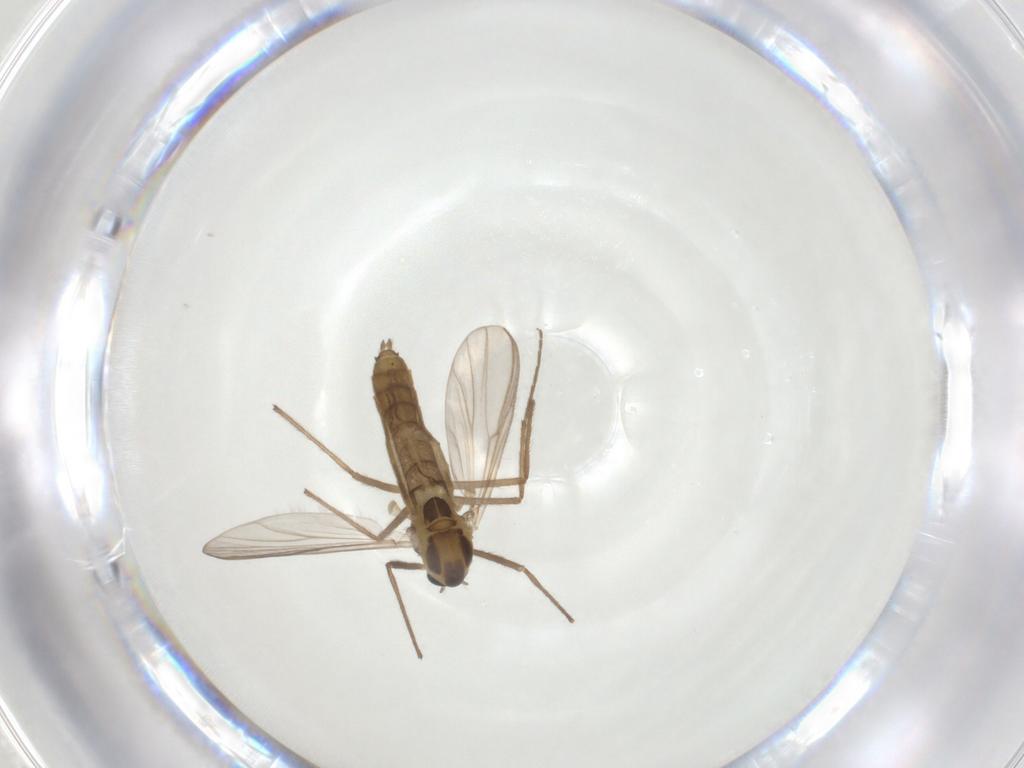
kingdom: Animalia
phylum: Arthropoda
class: Insecta
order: Diptera
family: Chironomidae
